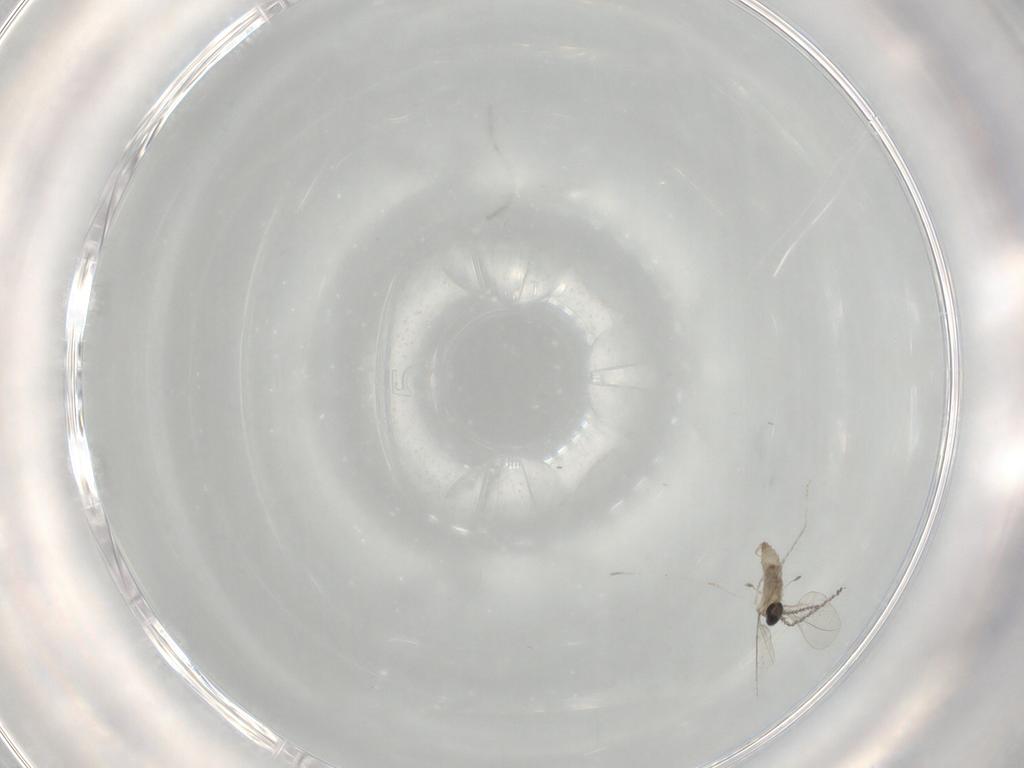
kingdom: Animalia
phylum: Arthropoda
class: Insecta
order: Diptera
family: Cecidomyiidae
